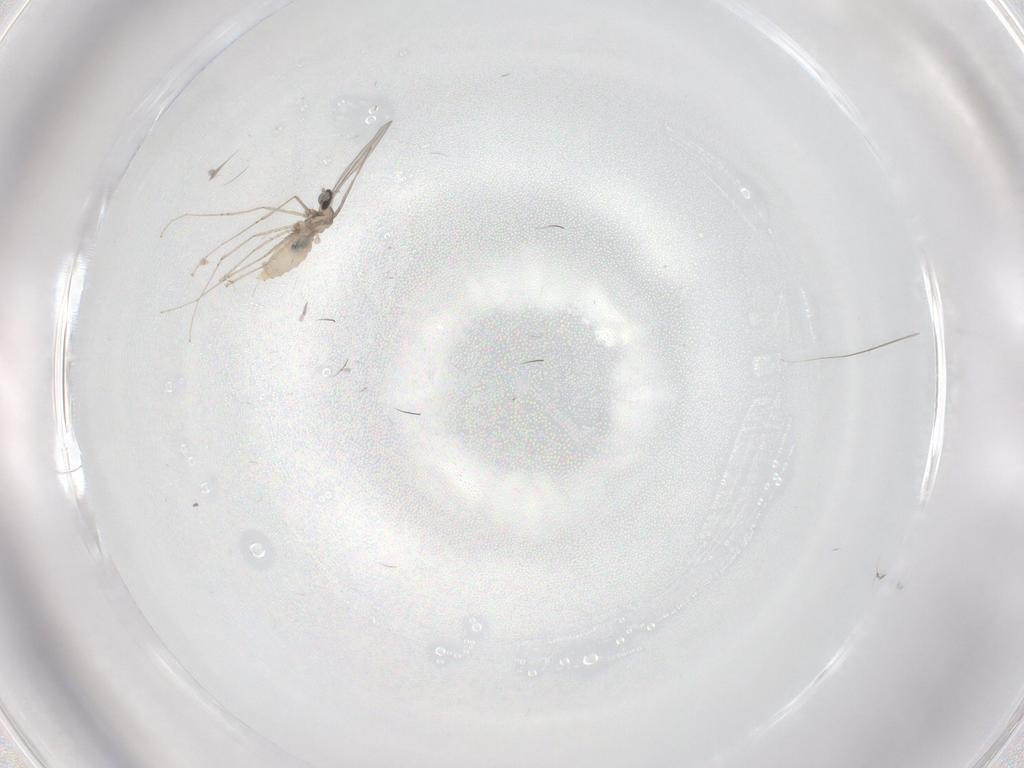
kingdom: Animalia
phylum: Arthropoda
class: Insecta
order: Diptera
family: Cecidomyiidae
